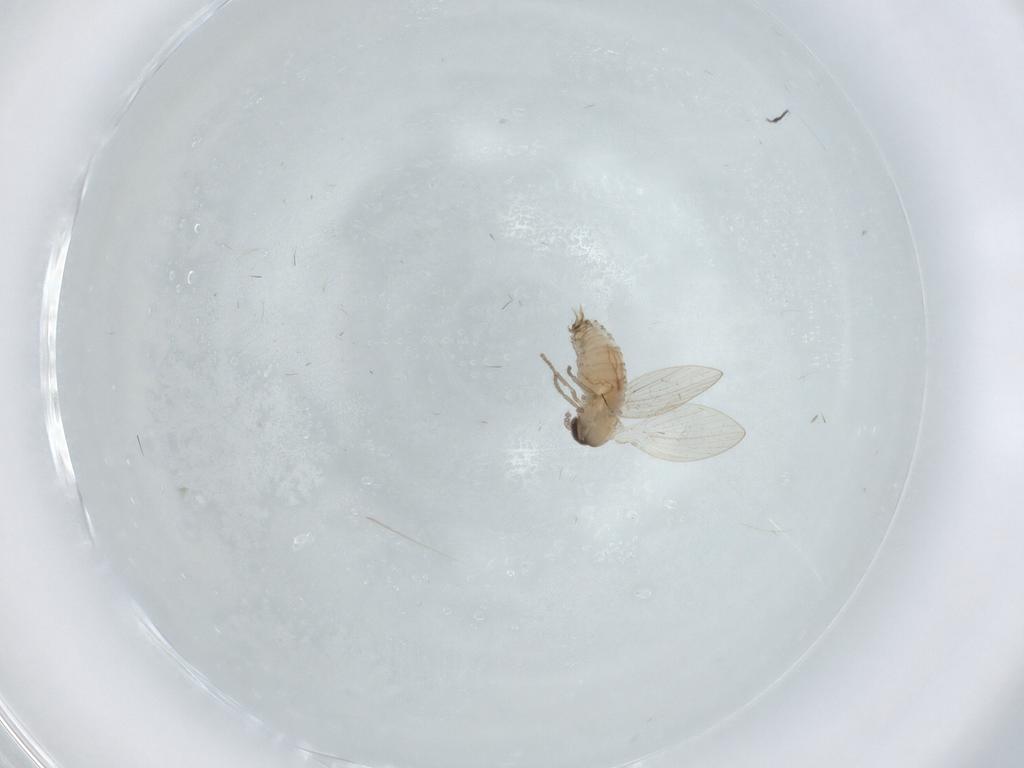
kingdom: Animalia
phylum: Arthropoda
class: Insecta
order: Diptera
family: Psychodidae
